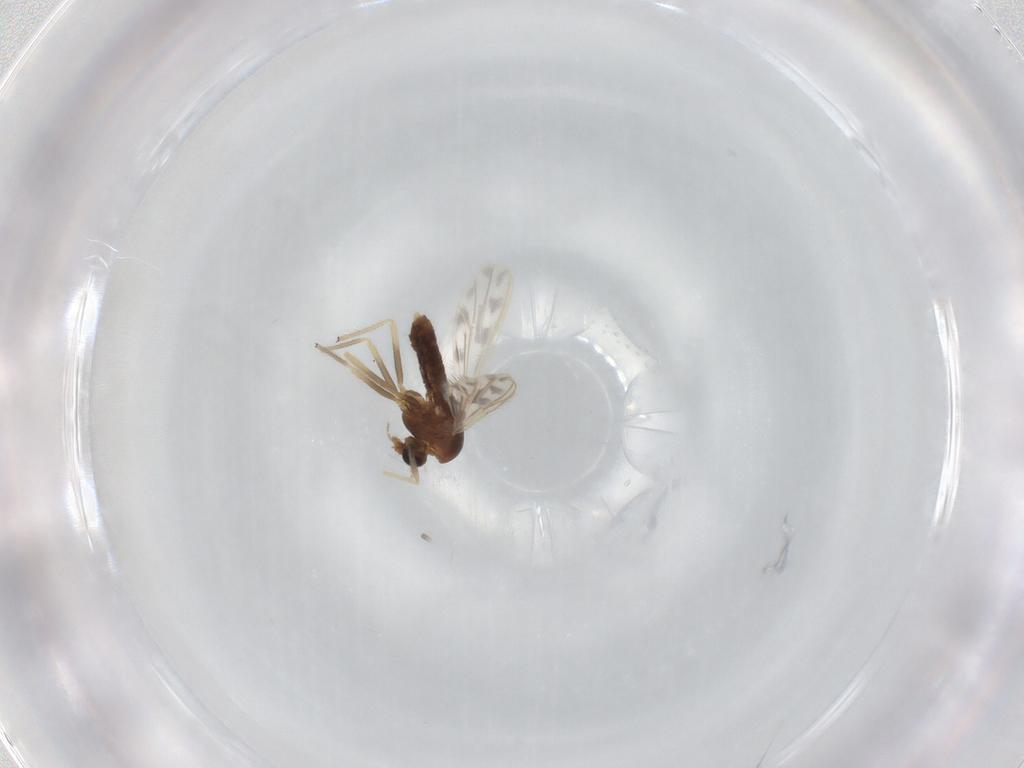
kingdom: Animalia
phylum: Arthropoda
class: Insecta
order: Diptera
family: Chironomidae
